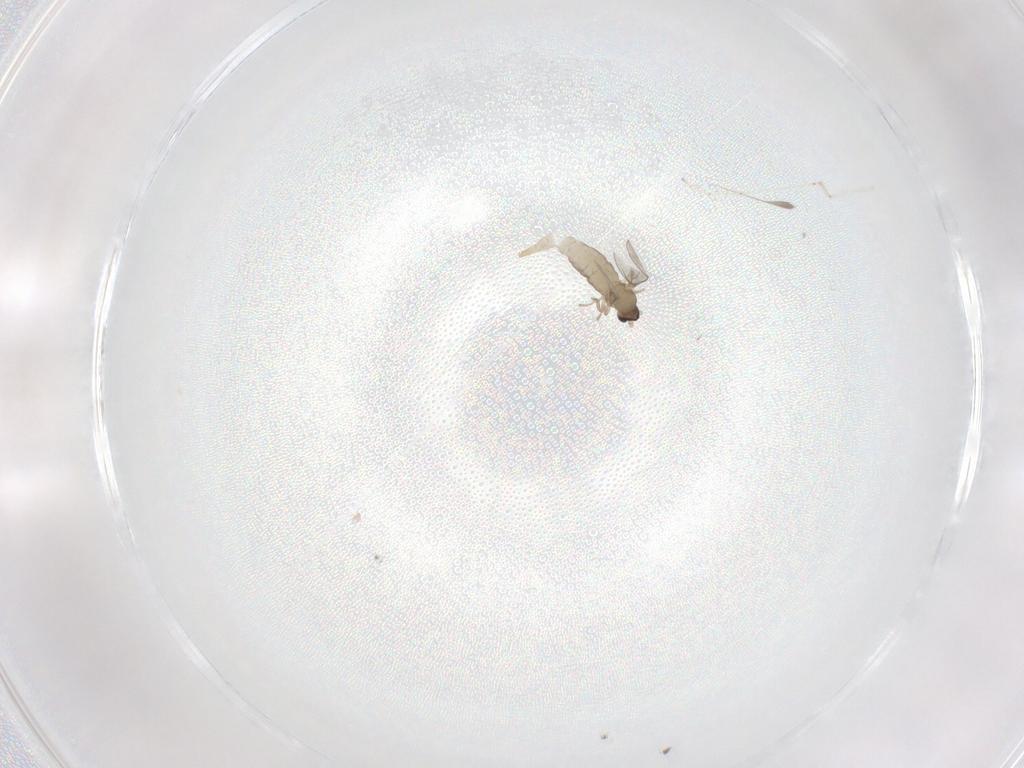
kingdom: Animalia
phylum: Arthropoda
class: Insecta
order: Diptera
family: Cecidomyiidae
